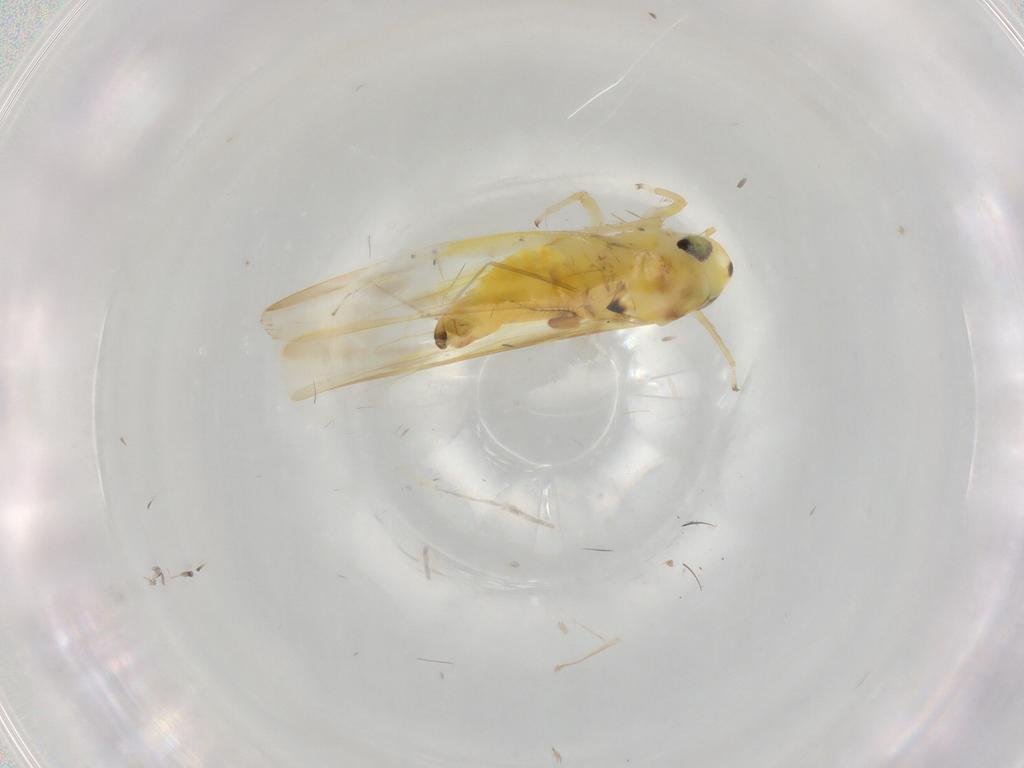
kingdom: Animalia
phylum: Arthropoda
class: Insecta
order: Hemiptera
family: Cicadellidae
